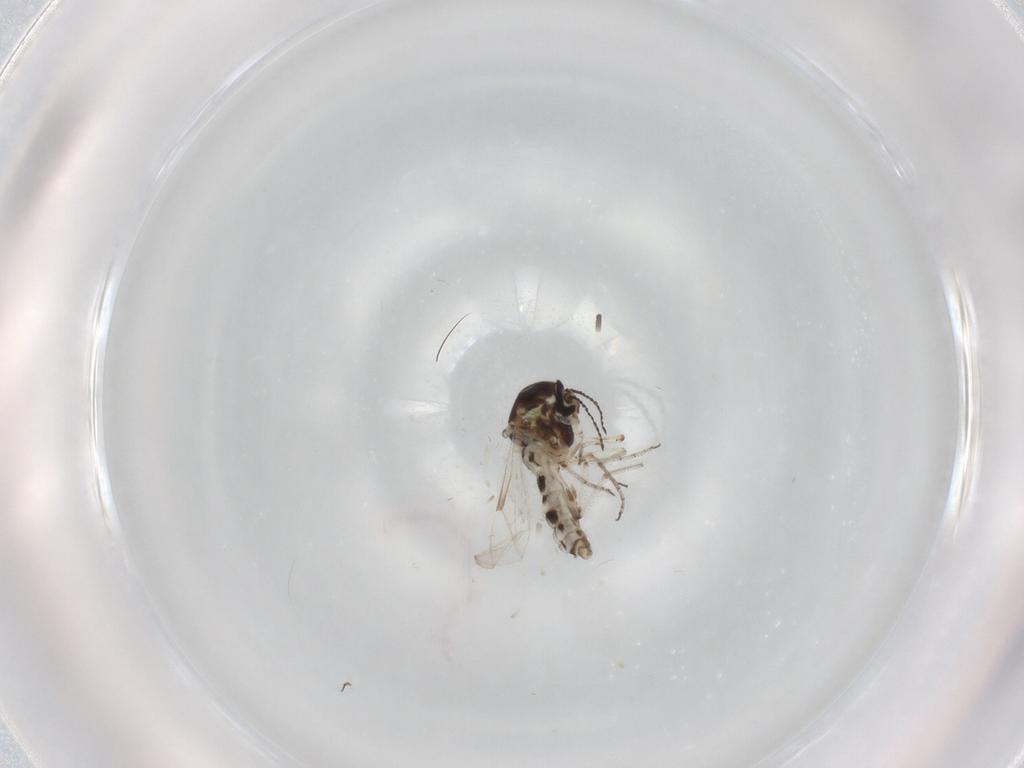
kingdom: Animalia
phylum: Arthropoda
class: Insecta
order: Diptera
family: Ceratopogonidae
